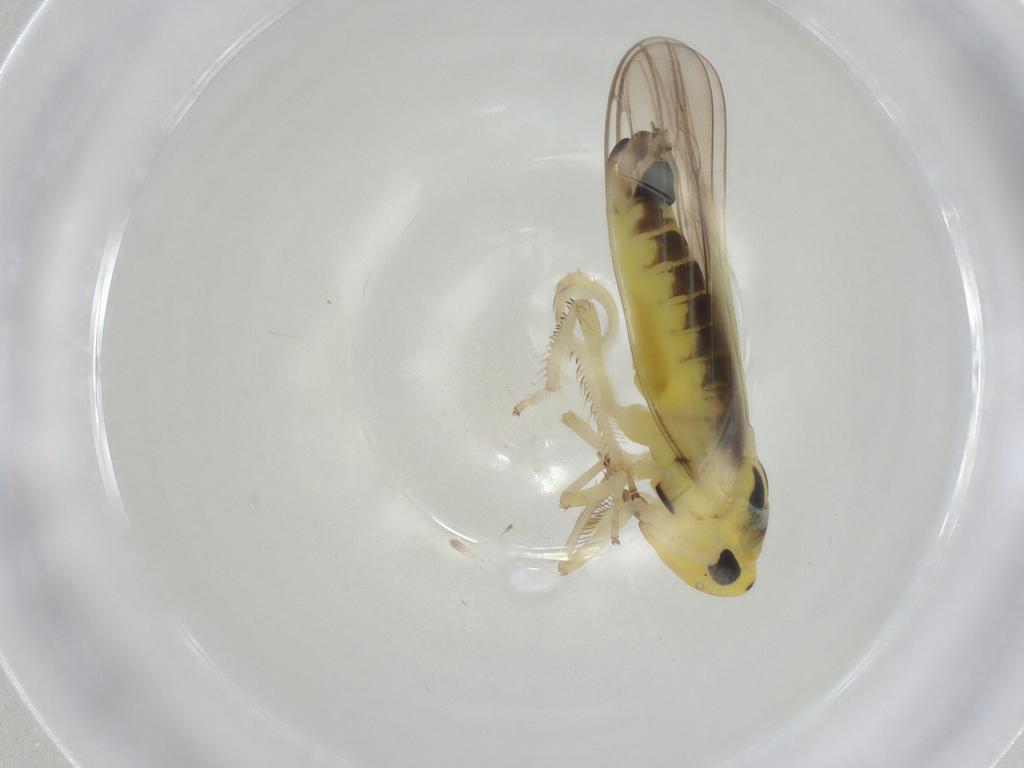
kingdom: Animalia
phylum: Arthropoda
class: Insecta
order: Hemiptera
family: Cicadellidae
